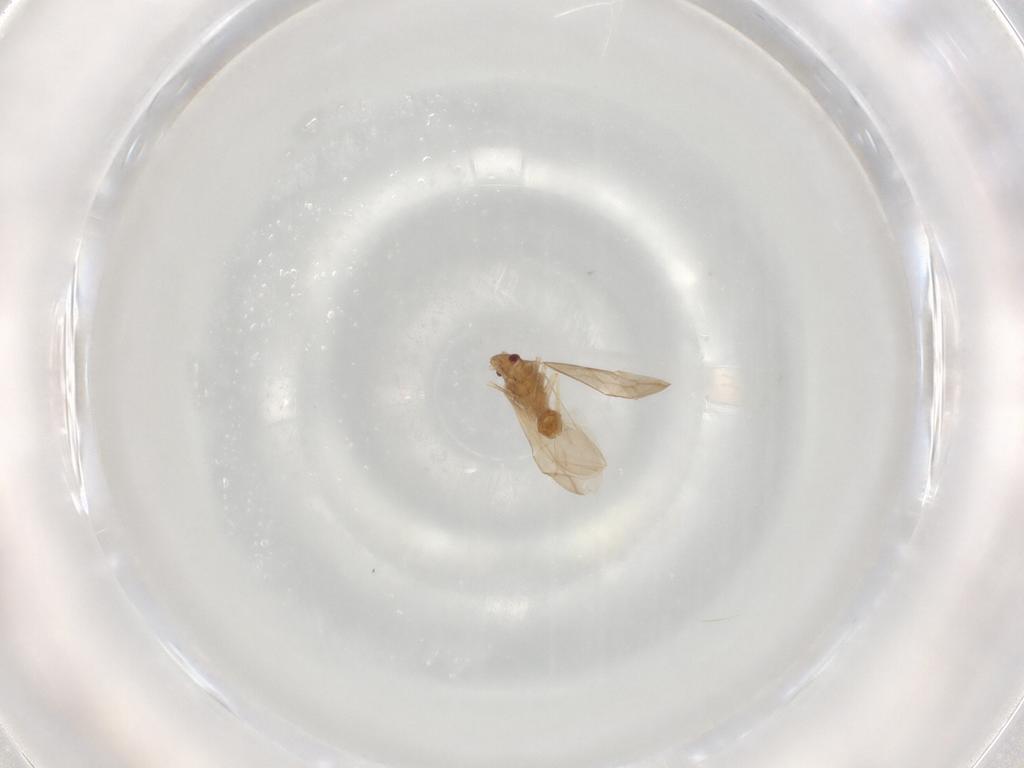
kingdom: Animalia
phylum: Arthropoda
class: Insecta
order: Hemiptera
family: Ceratocombidae
